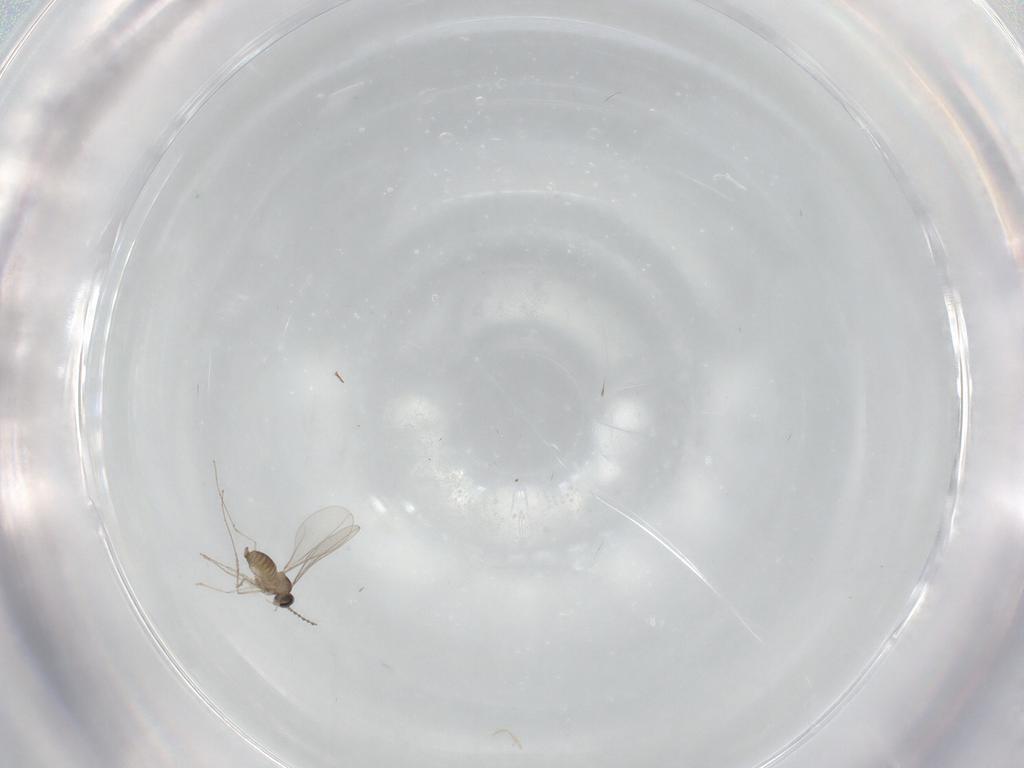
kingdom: Animalia
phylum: Arthropoda
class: Insecta
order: Diptera
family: Cecidomyiidae
